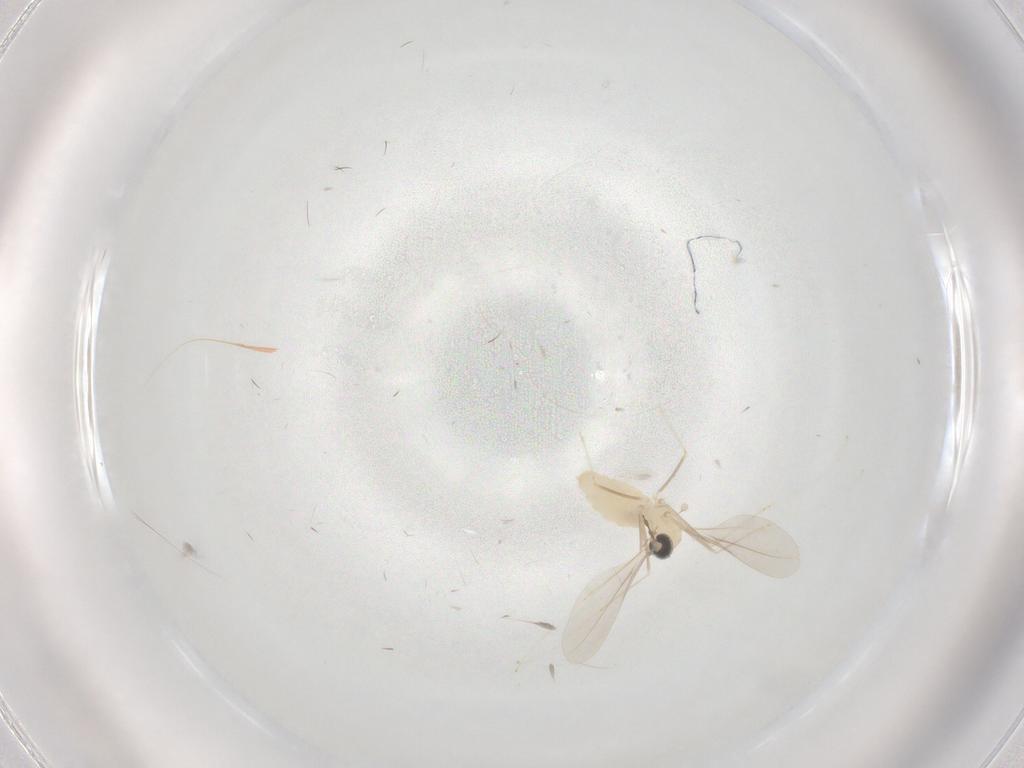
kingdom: Animalia
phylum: Arthropoda
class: Insecta
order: Diptera
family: Cecidomyiidae
